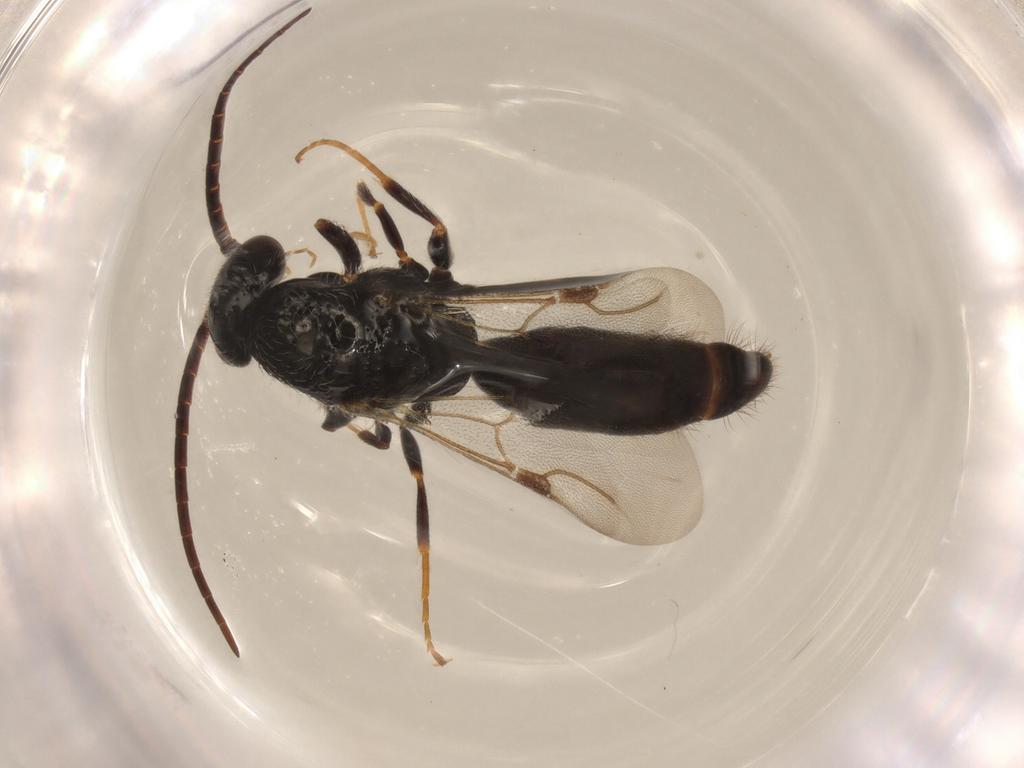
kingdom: Animalia
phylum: Arthropoda
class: Insecta
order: Hymenoptera
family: Bethylidae
